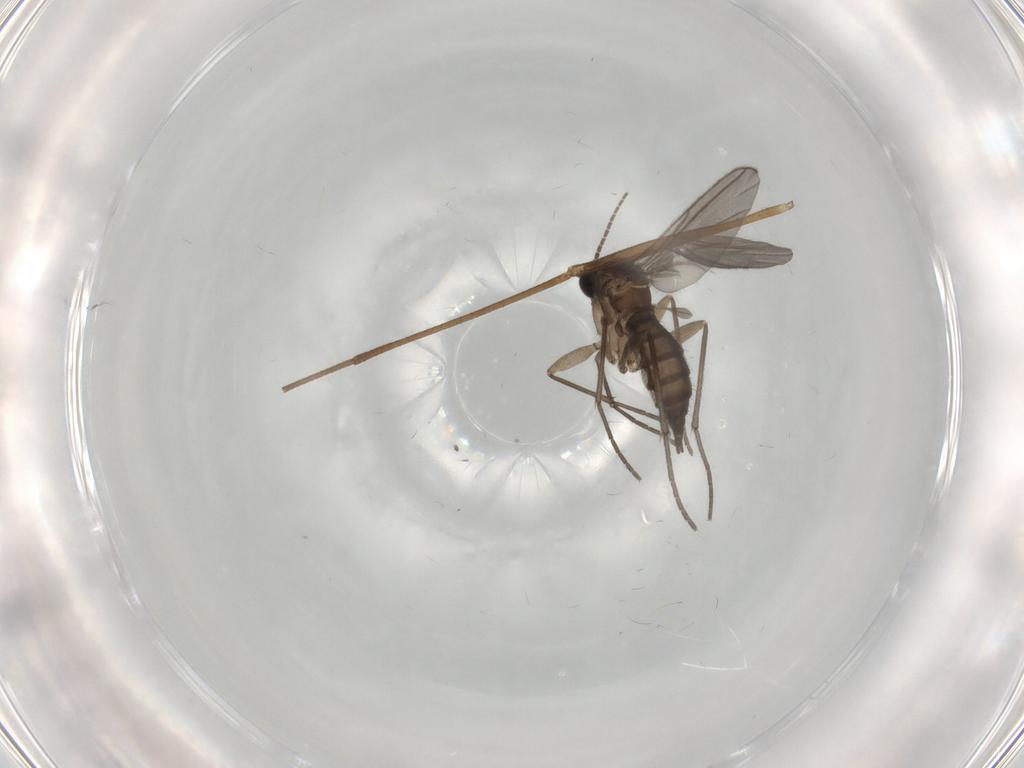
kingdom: Animalia
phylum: Arthropoda
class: Insecta
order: Diptera
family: Sciaridae
